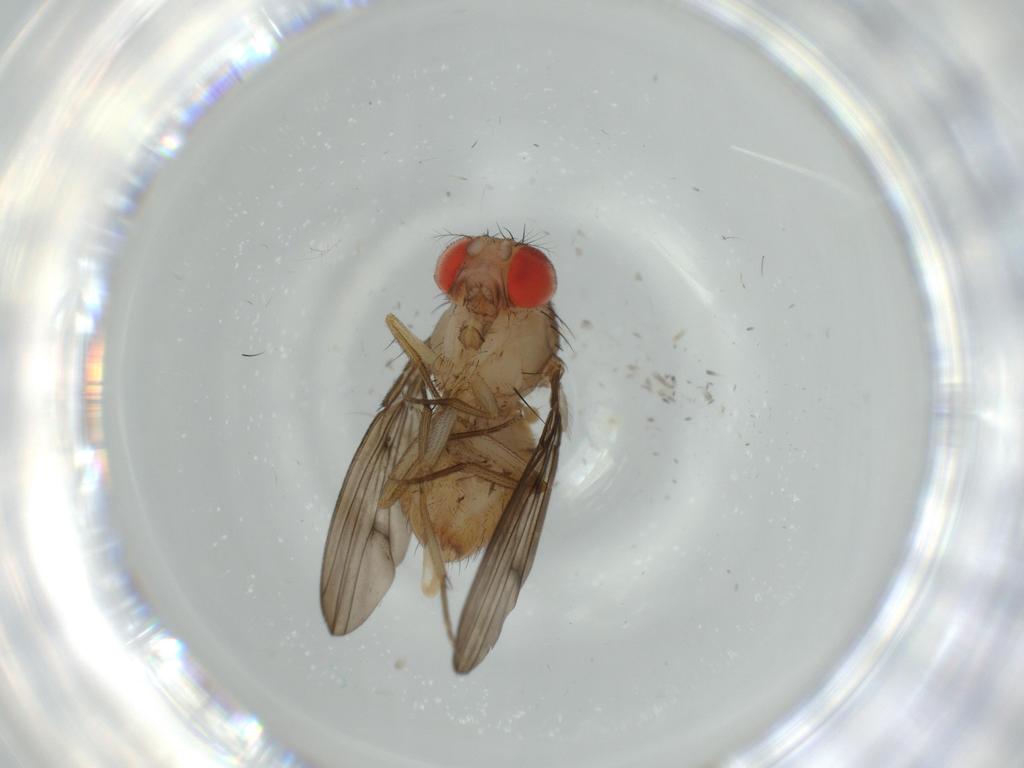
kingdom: Animalia
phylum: Arthropoda
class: Insecta
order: Diptera
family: Drosophilidae
